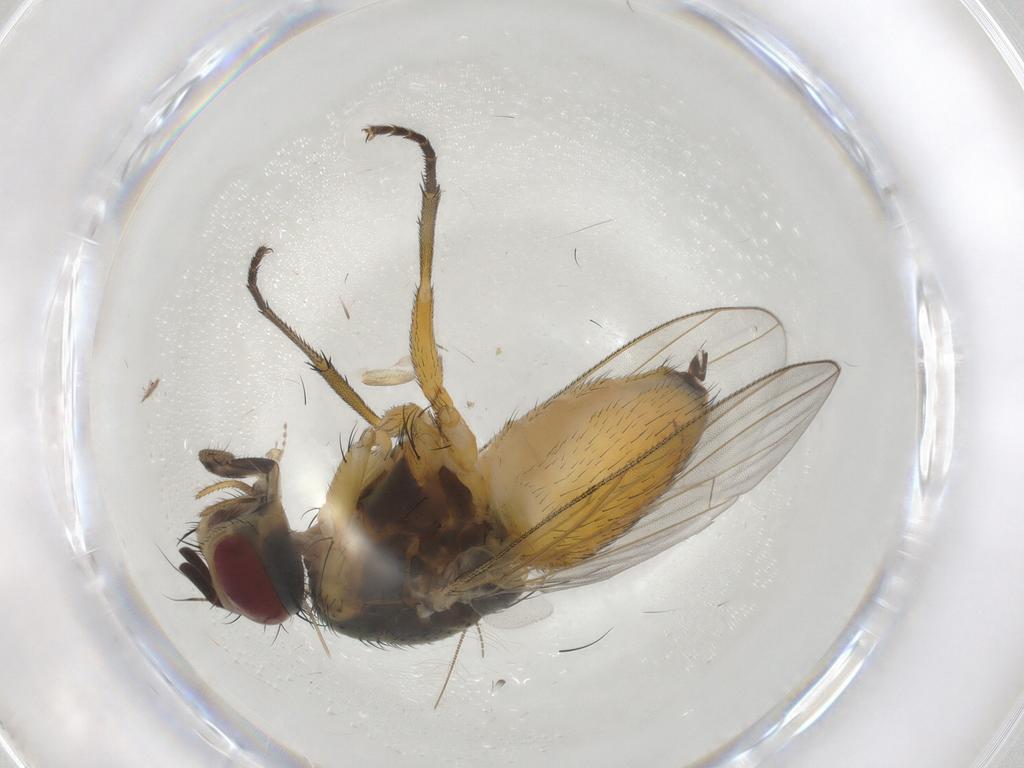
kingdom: Animalia
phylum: Arthropoda
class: Insecta
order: Diptera
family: Muscidae
